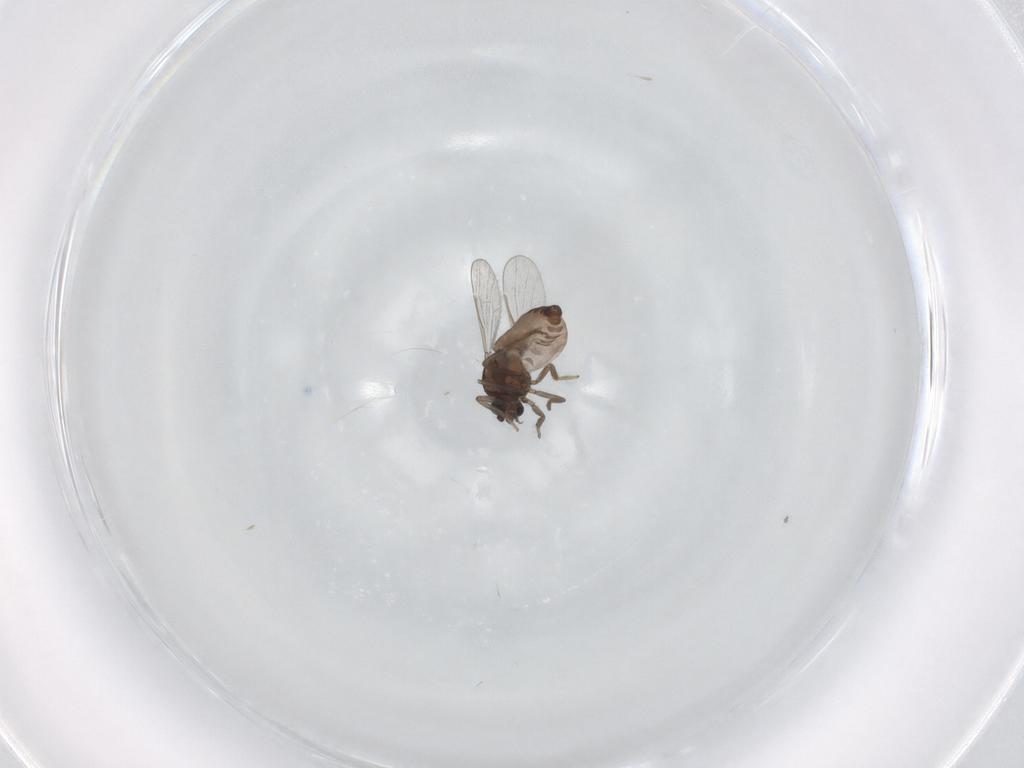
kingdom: Animalia
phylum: Arthropoda
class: Insecta
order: Diptera
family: Ceratopogonidae
